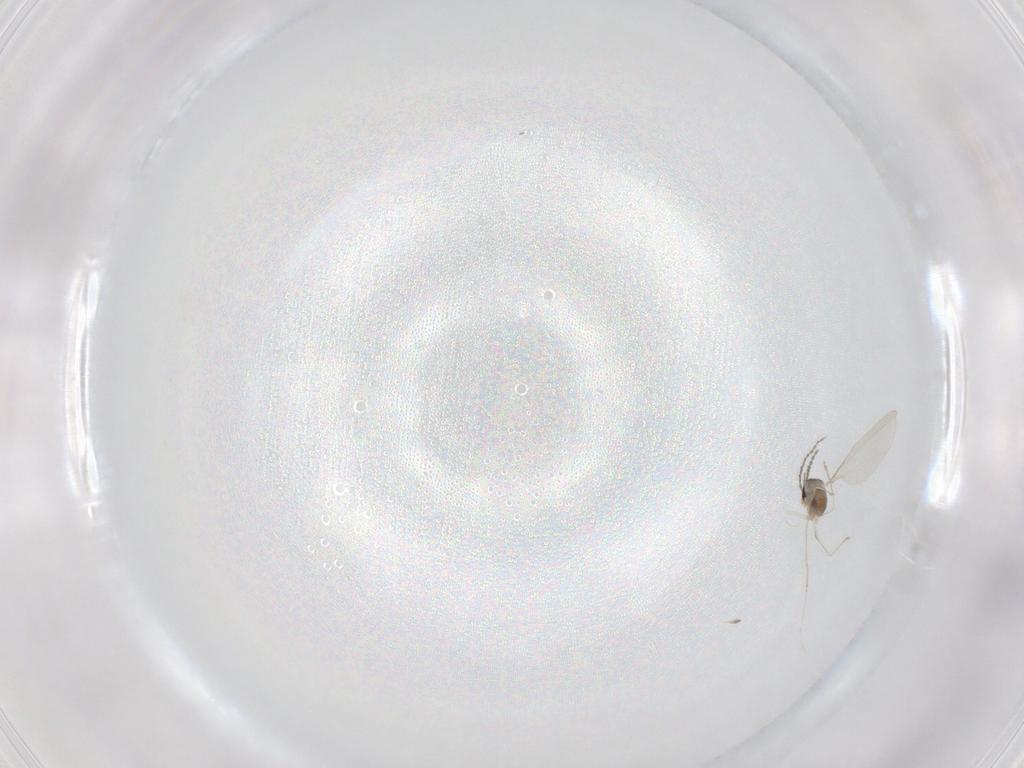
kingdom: Animalia
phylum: Arthropoda
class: Insecta
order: Diptera
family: Cecidomyiidae
